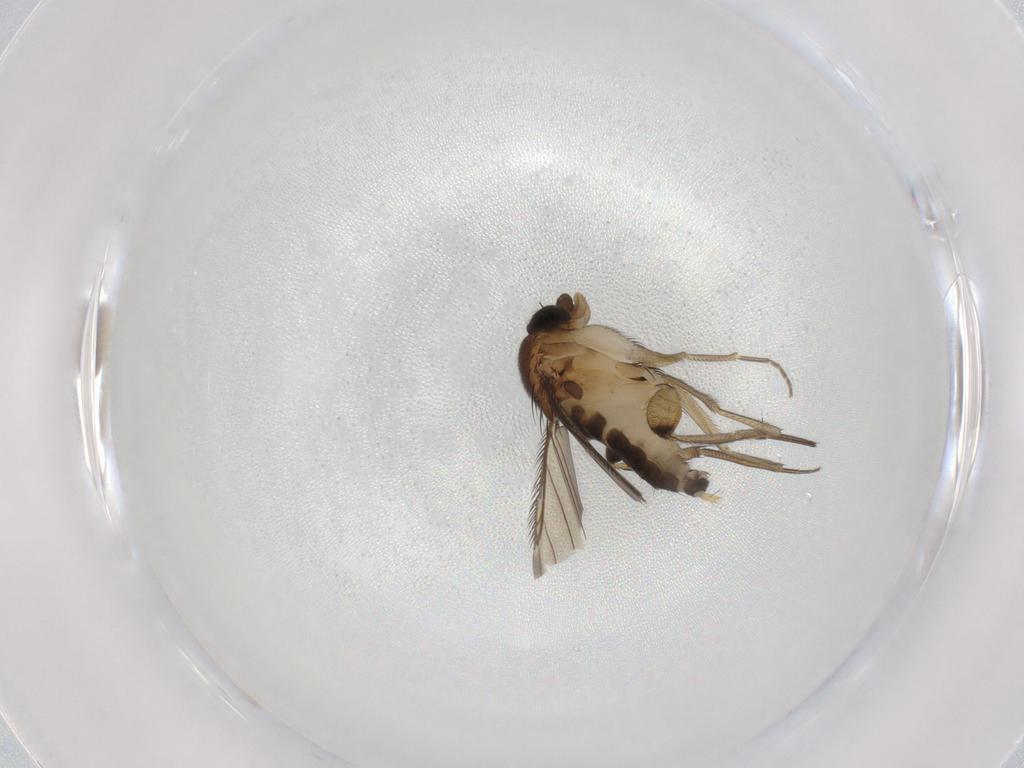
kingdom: Animalia
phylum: Arthropoda
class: Insecta
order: Diptera
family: Phoridae
